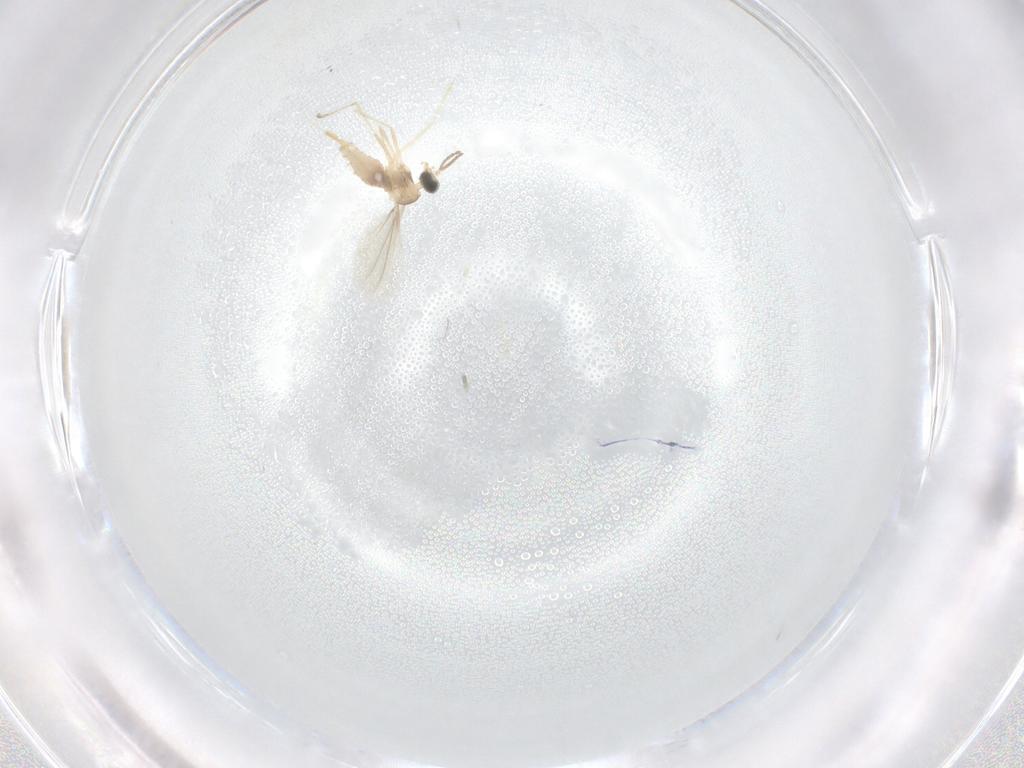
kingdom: Animalia
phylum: Arthropoda
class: Insecta
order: Diptera
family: Cecidomyiidae
